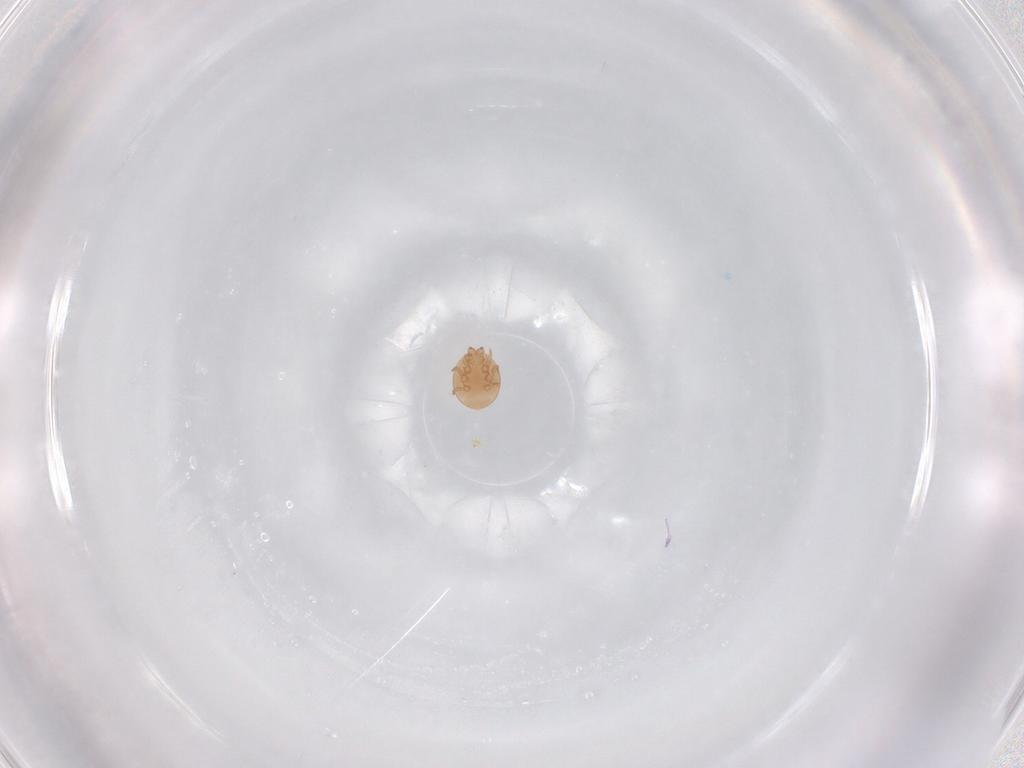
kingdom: Animalia
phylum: Arthropoda
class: Arachnida
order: Mesostigmata
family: Trematuridae
